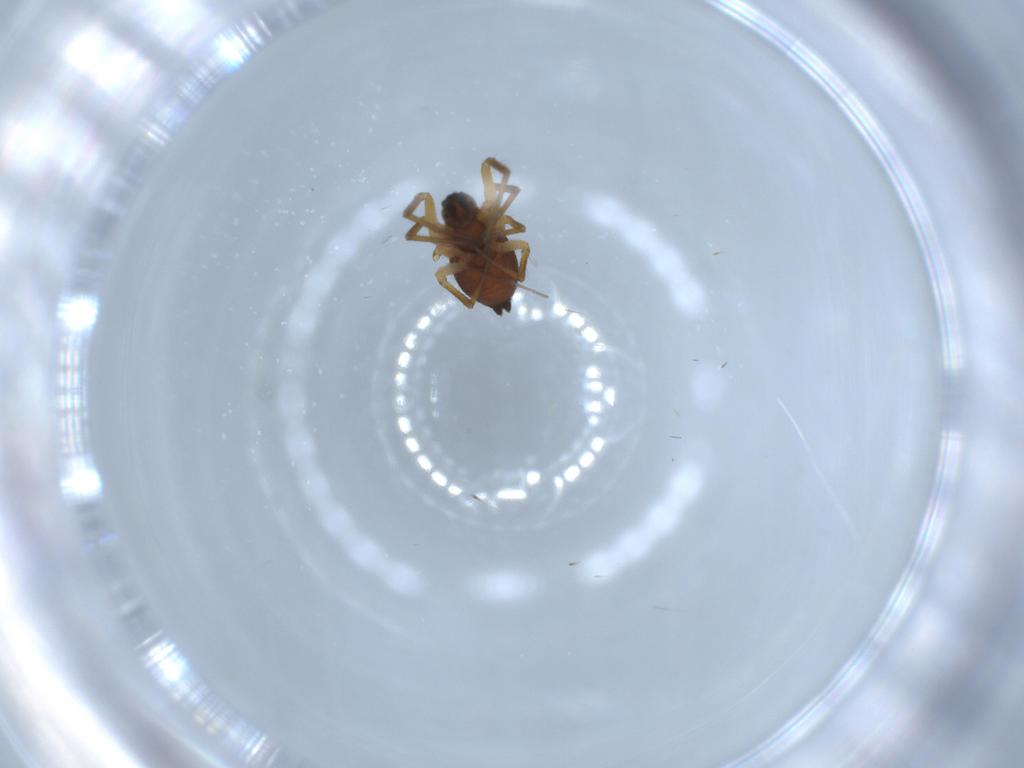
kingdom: Animalia
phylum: Arthropoda
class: Arachnida
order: Araneae
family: Linyphiidae
